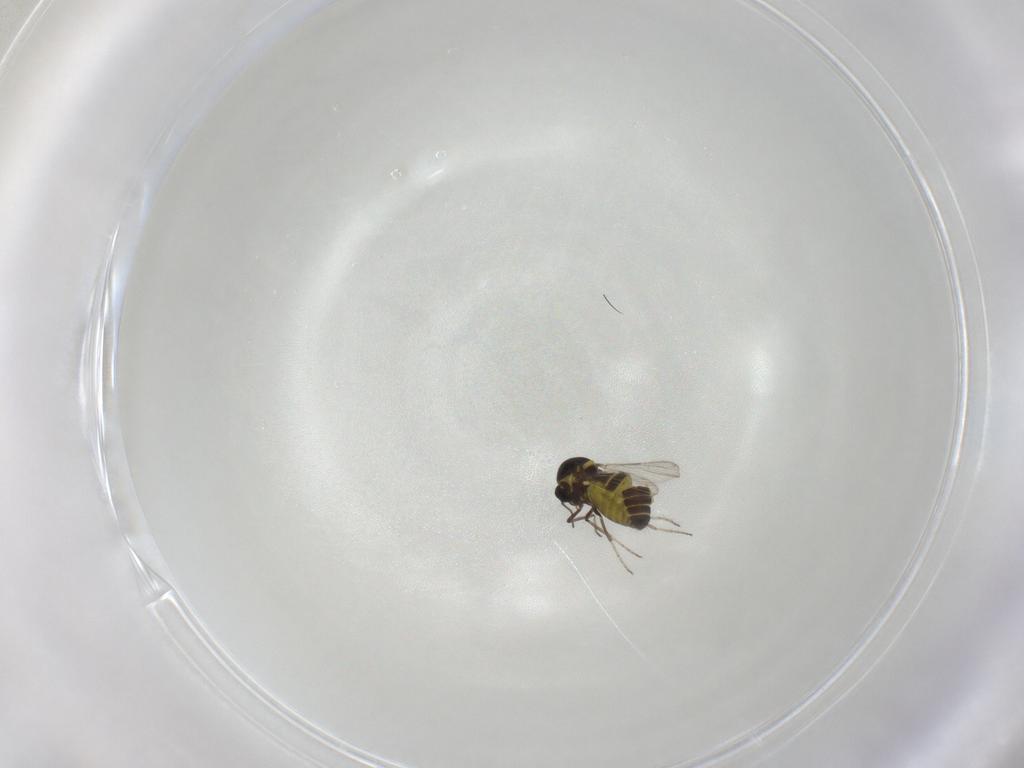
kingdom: Animalia
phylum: Arthropoda
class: Insecta
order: Diptera
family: Ceratopogonidae
